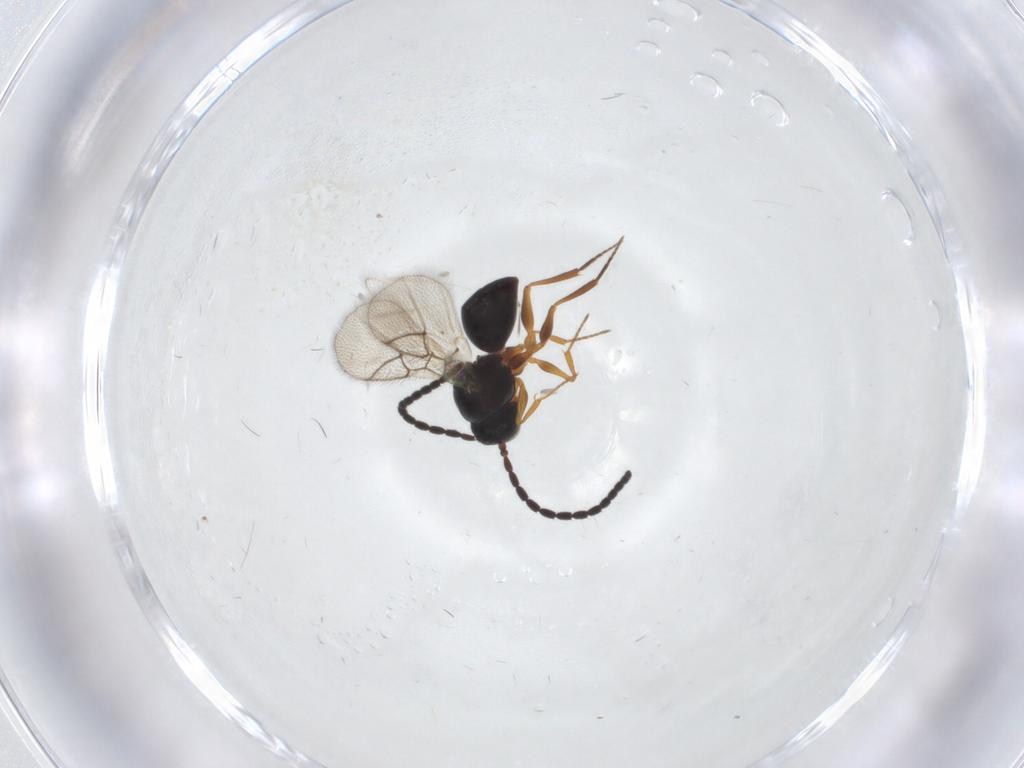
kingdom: Animalia
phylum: Arthropoda
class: Insecta
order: Hymenoptera
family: Figitidae
